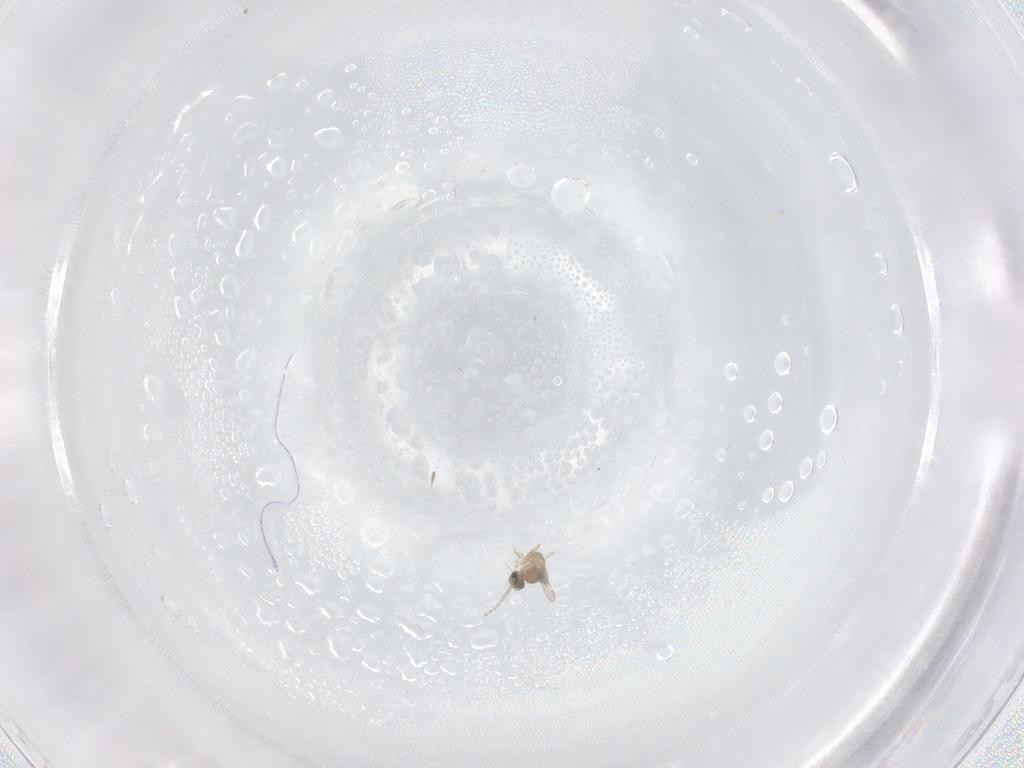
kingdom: Animalia
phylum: Arthropoda
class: Insecta
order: Diptera
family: Cecidomyiidae
